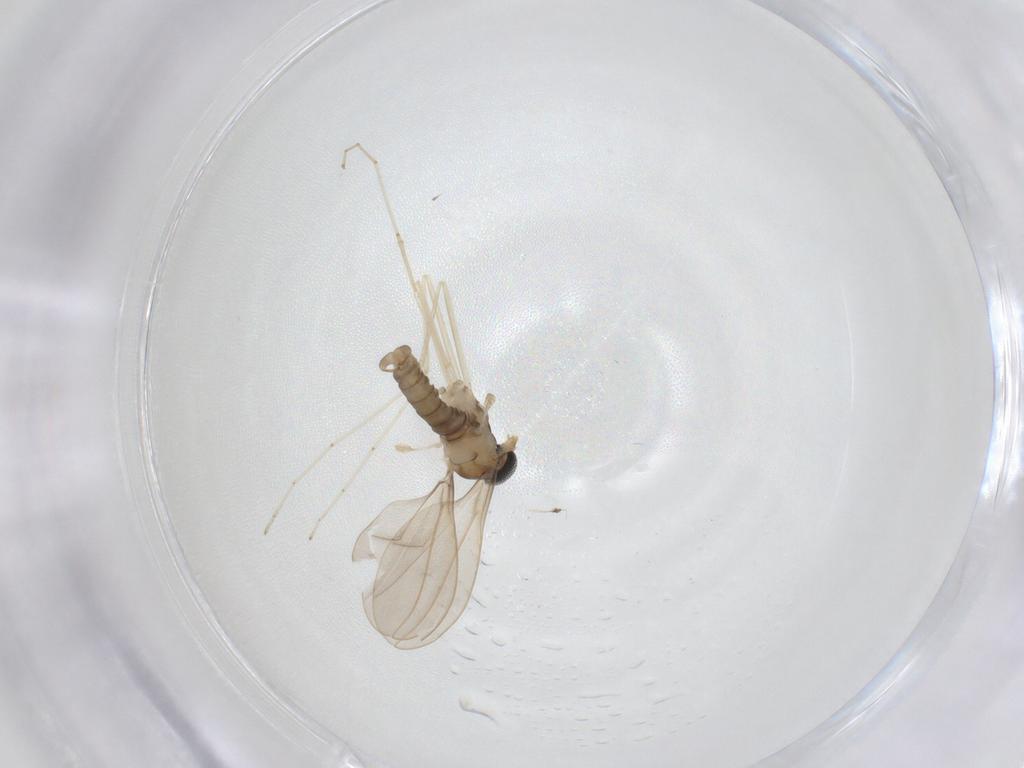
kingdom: Animalia
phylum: Arthropoda
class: Insecta
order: Diptera
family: Cecidomyiidae
